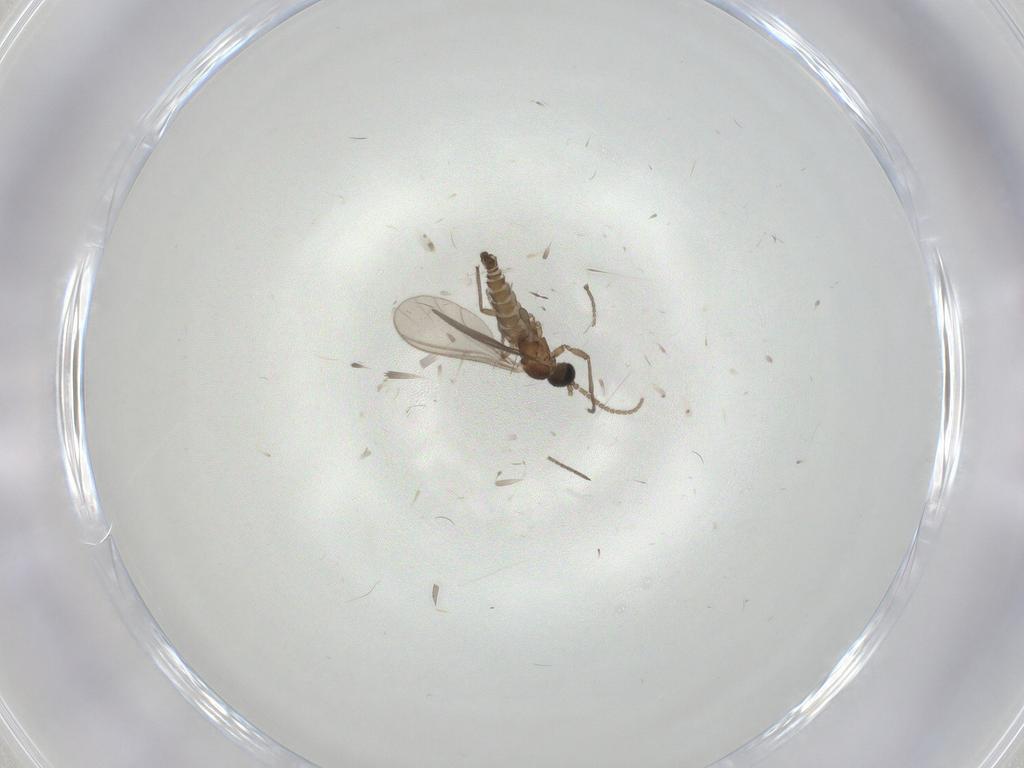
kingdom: Animalia
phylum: Arthropoda
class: Insecta
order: Diptera
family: Sciaridae
